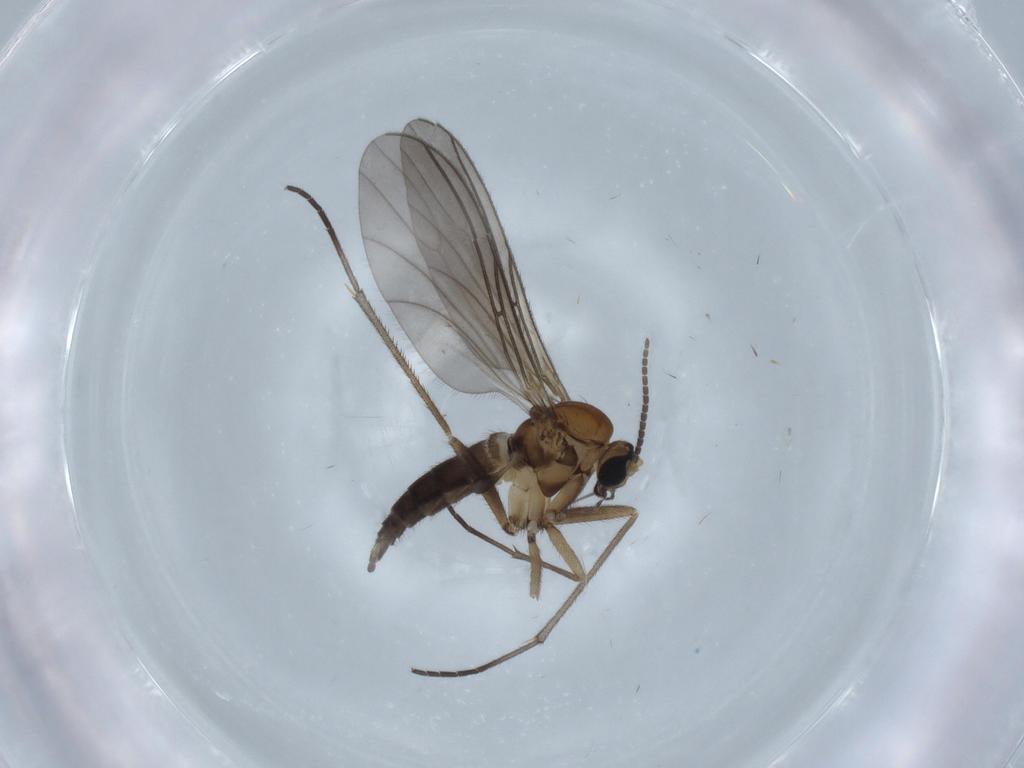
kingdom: Animalia
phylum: Arthropoda
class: Insecta
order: Diptera
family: Sciaridae
